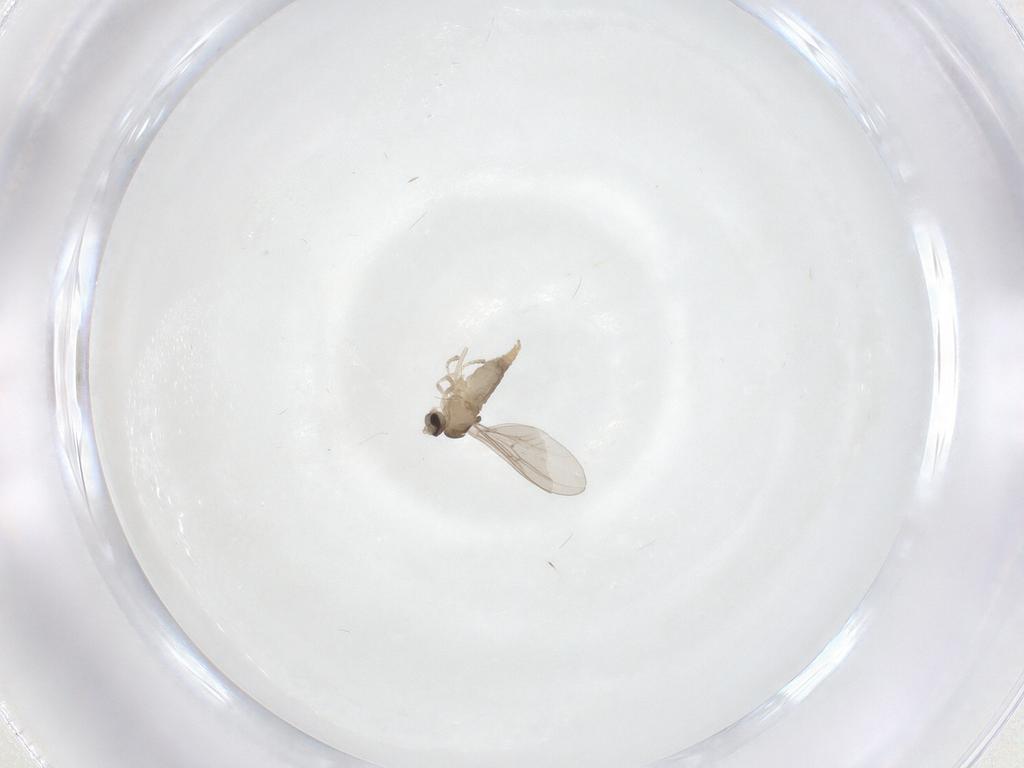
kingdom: Animalia
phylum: Arthropoda
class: Insecta
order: Diptera
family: Cecidomyiidae
